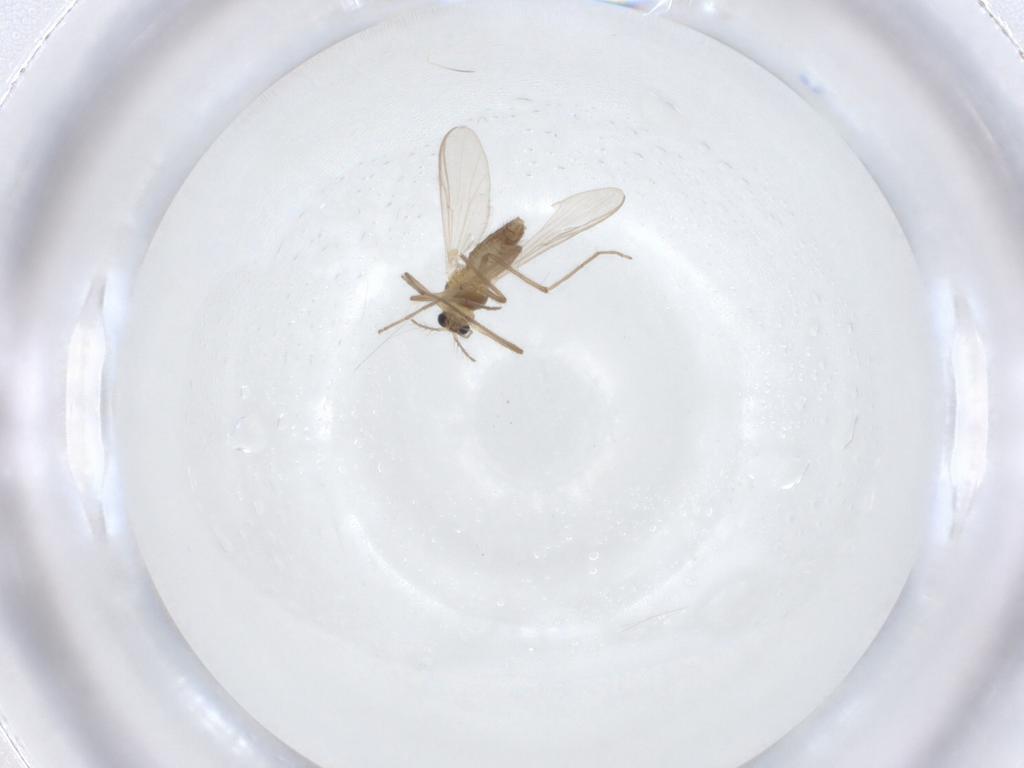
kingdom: Animalia
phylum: Arthropoda
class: Insecta
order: Diptera
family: Chironomidae
